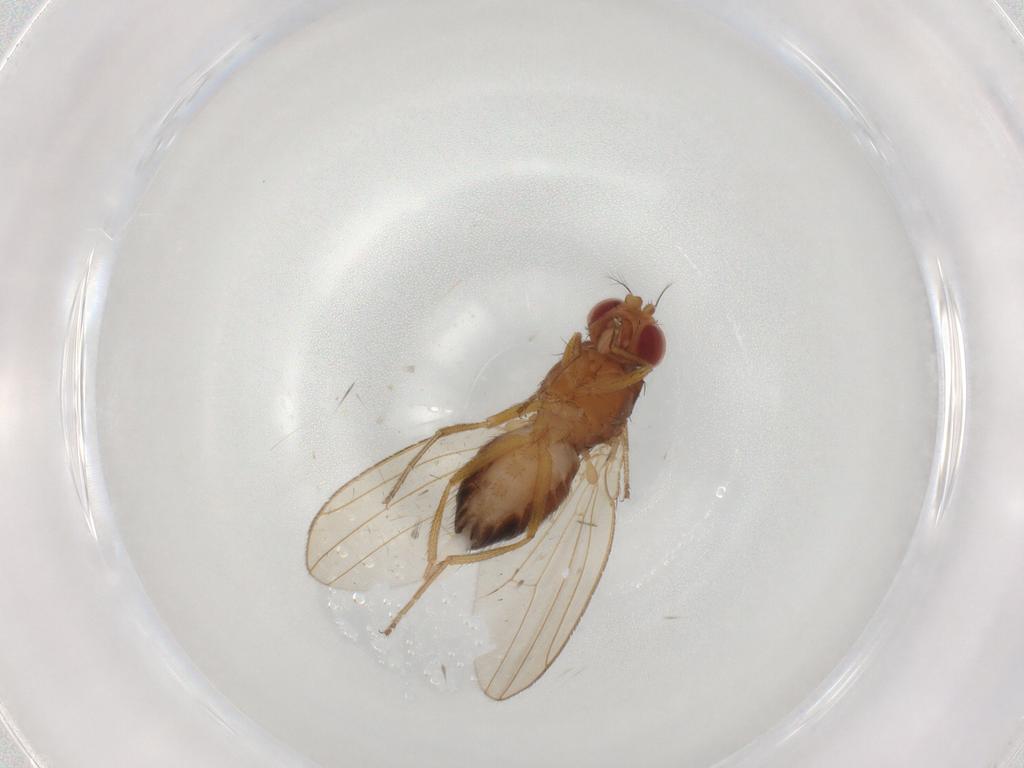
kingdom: Animalia
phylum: Arthropoda
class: Insecta
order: Diptera
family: Drosophilidae
